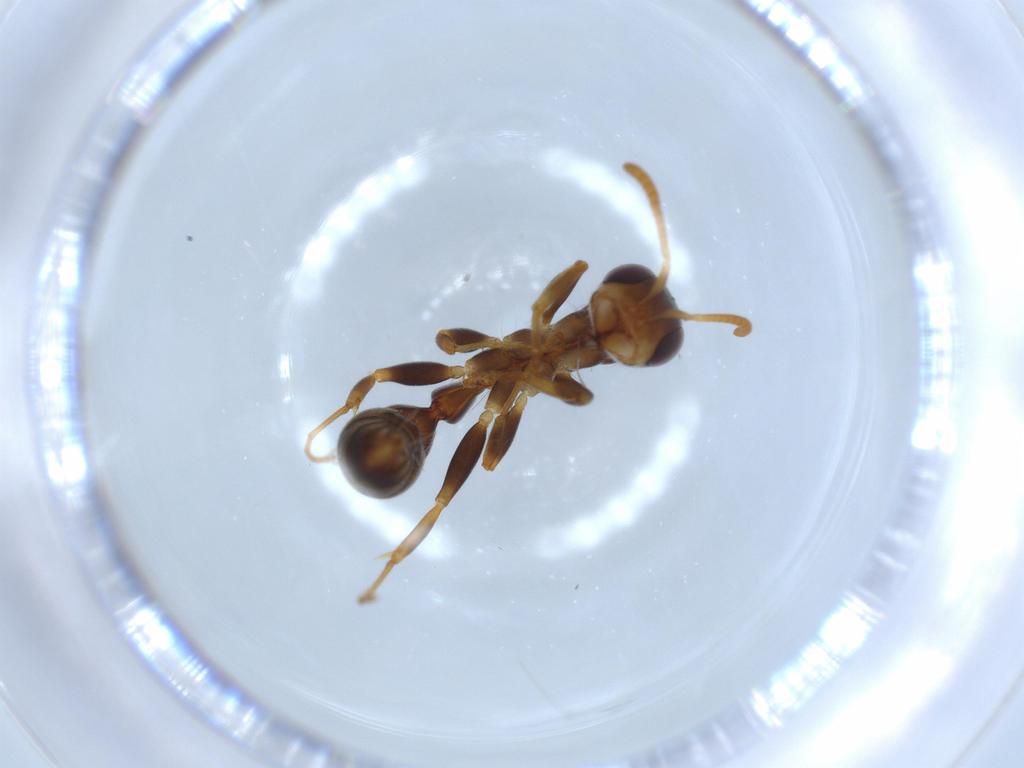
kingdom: Animalia
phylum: Arthropoda
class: Insecta
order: Hymenoptera
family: Formicidae
